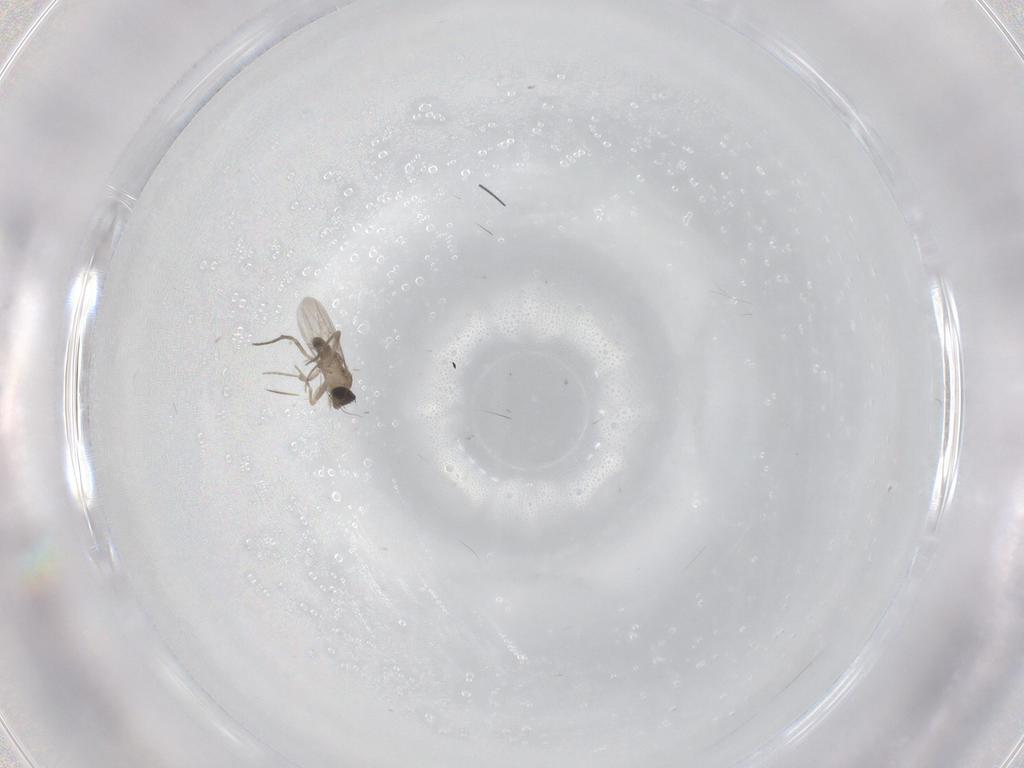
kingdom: Animalia
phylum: Arthropoda
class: Insecta
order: Diptera
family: Phoridae
